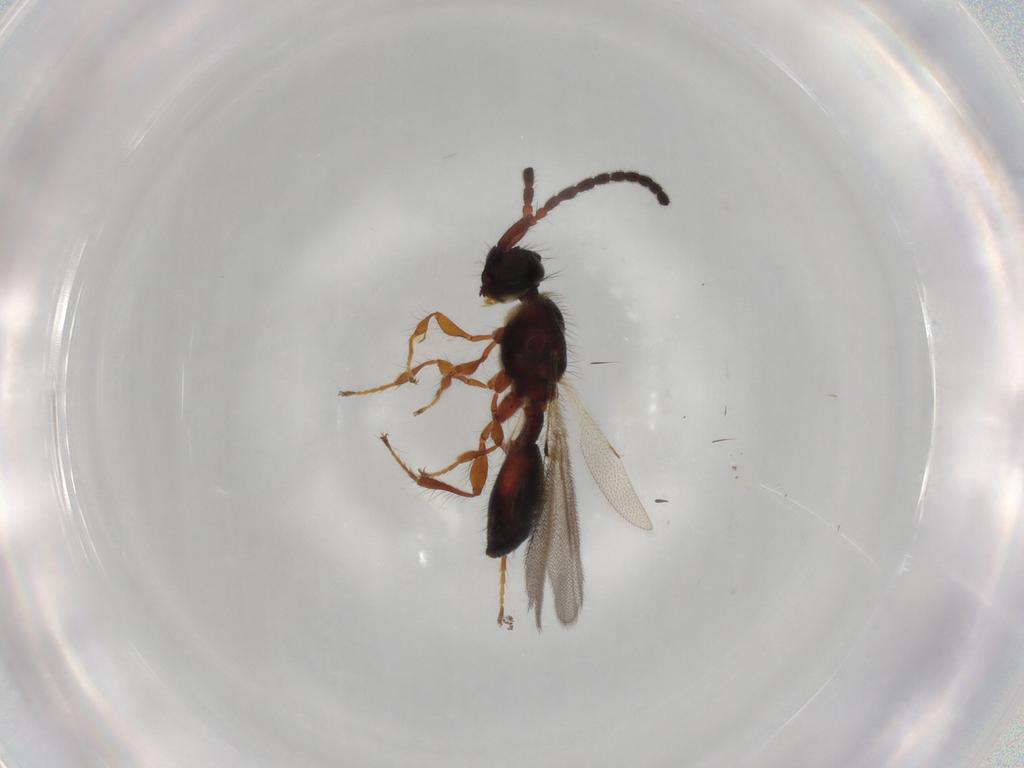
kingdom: Animalia
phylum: Arthropoda
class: Insecta
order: Hymenoptera
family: Diapriidae
